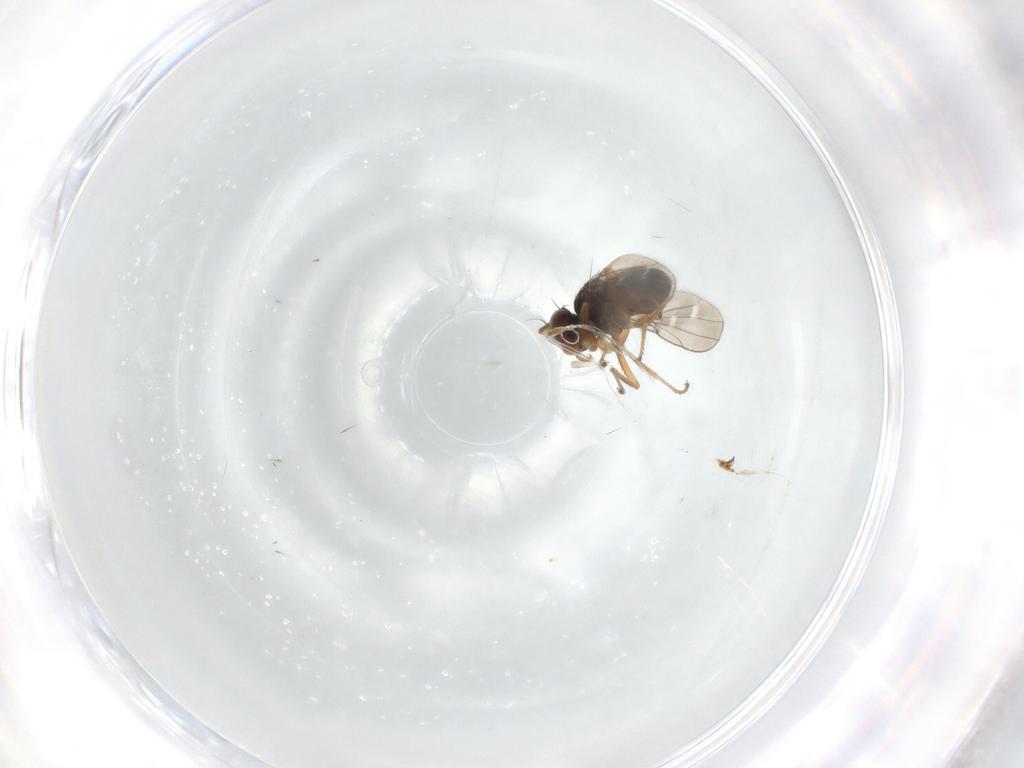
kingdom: Animalia
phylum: Arthropoda
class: Insecta
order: Diptera
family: Ephydridae
